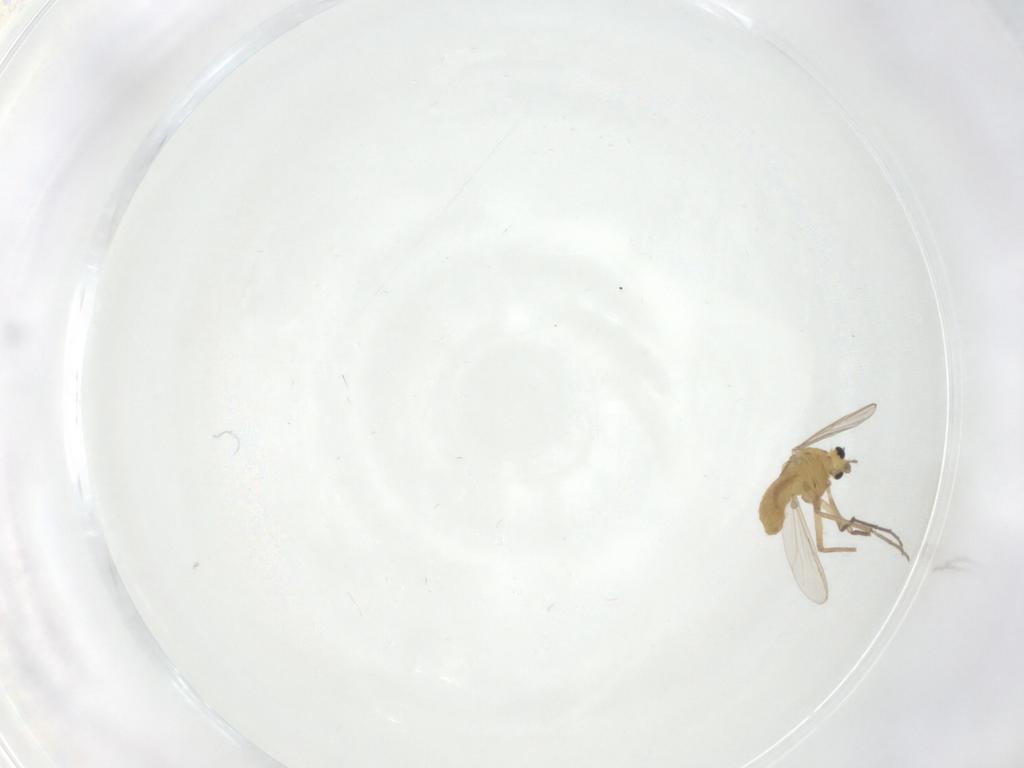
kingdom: Animalia
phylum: Arthropoda
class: Insecta
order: Diptera
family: Chironomidae
